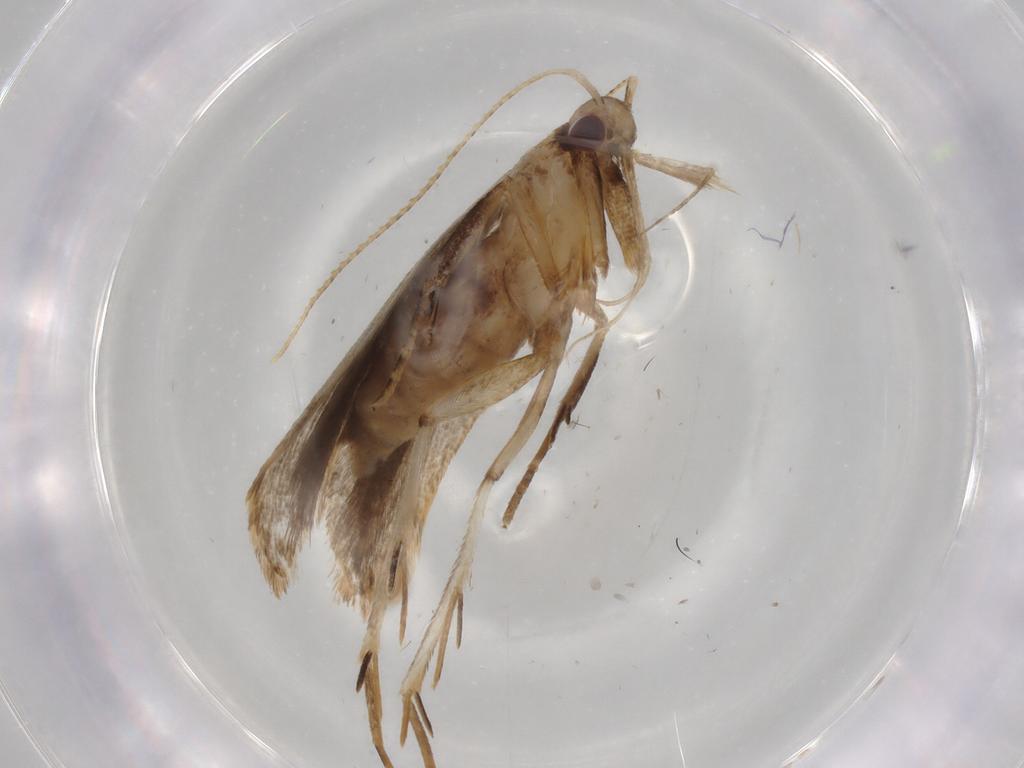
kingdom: Animalia
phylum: Arthropoda
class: Insecta
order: Lepidoptera
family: Gelechiidae
